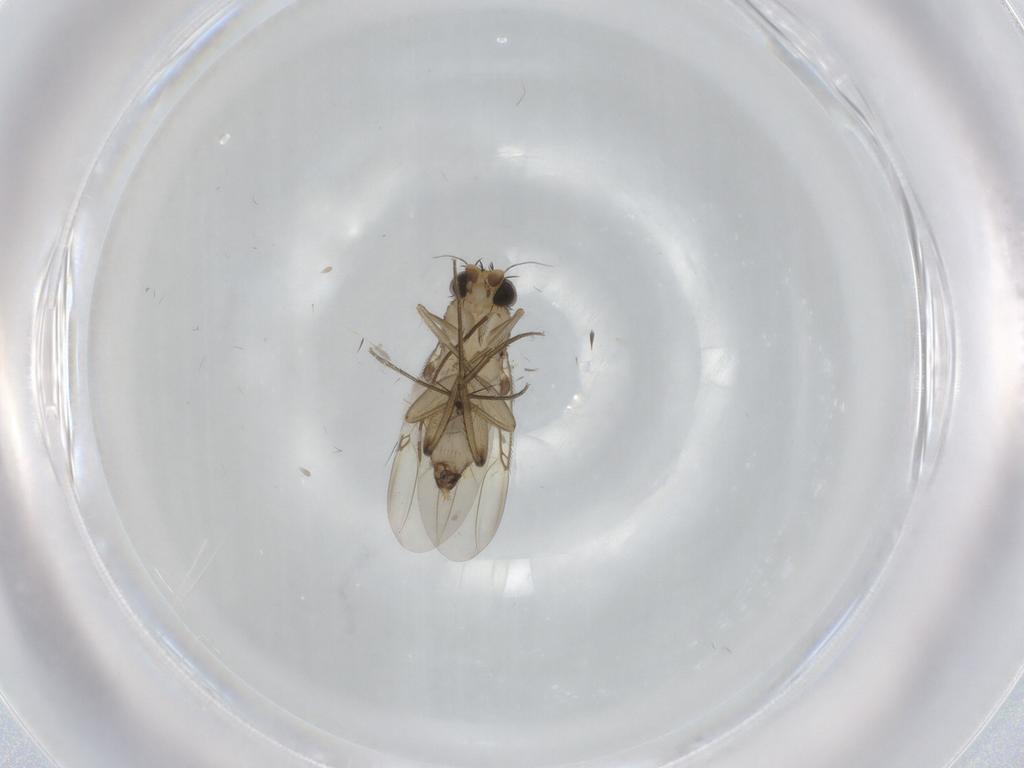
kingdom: Animalia
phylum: Arthropoda
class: Insecta
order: Diptera
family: Limoniidae
